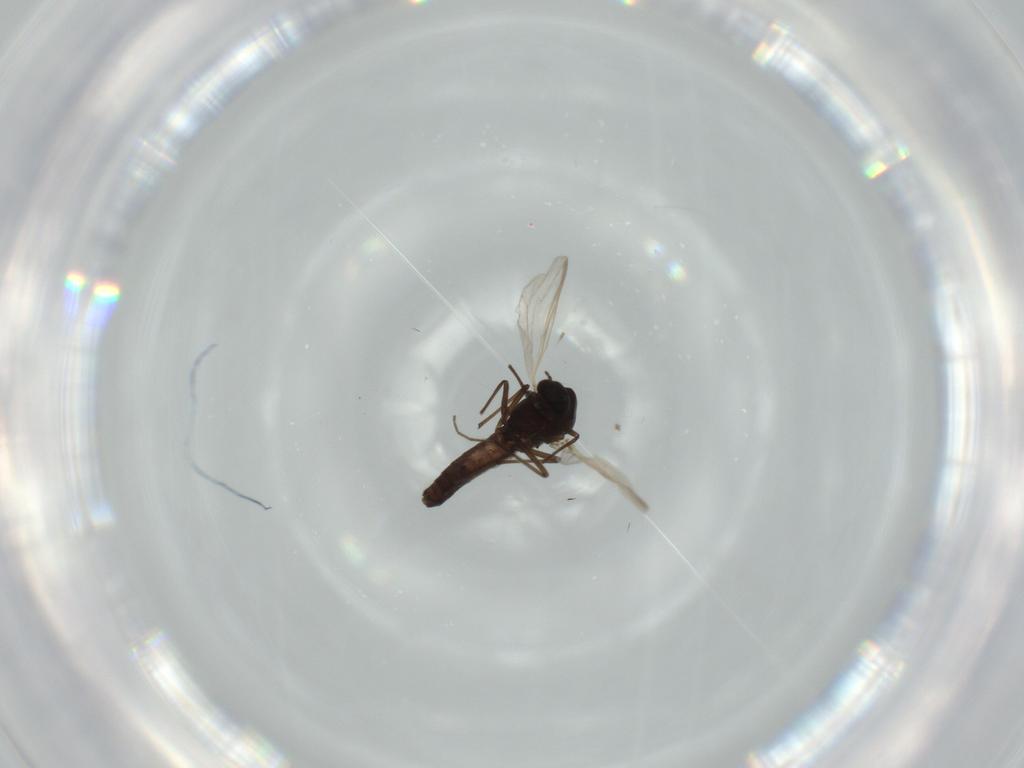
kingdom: Animalia
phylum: Arthropoda
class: Insecta
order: Diptera
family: Chironomidae
